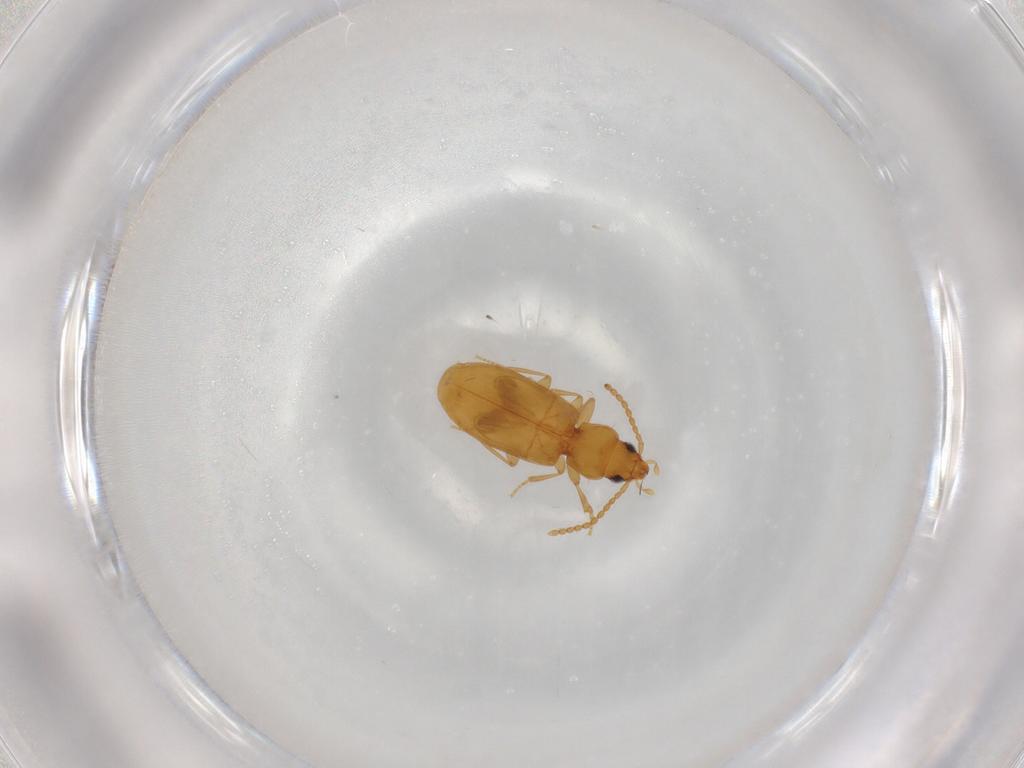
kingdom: Animalia
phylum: Arthropoda
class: Insecta
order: Coleoptera
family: Carabidae
